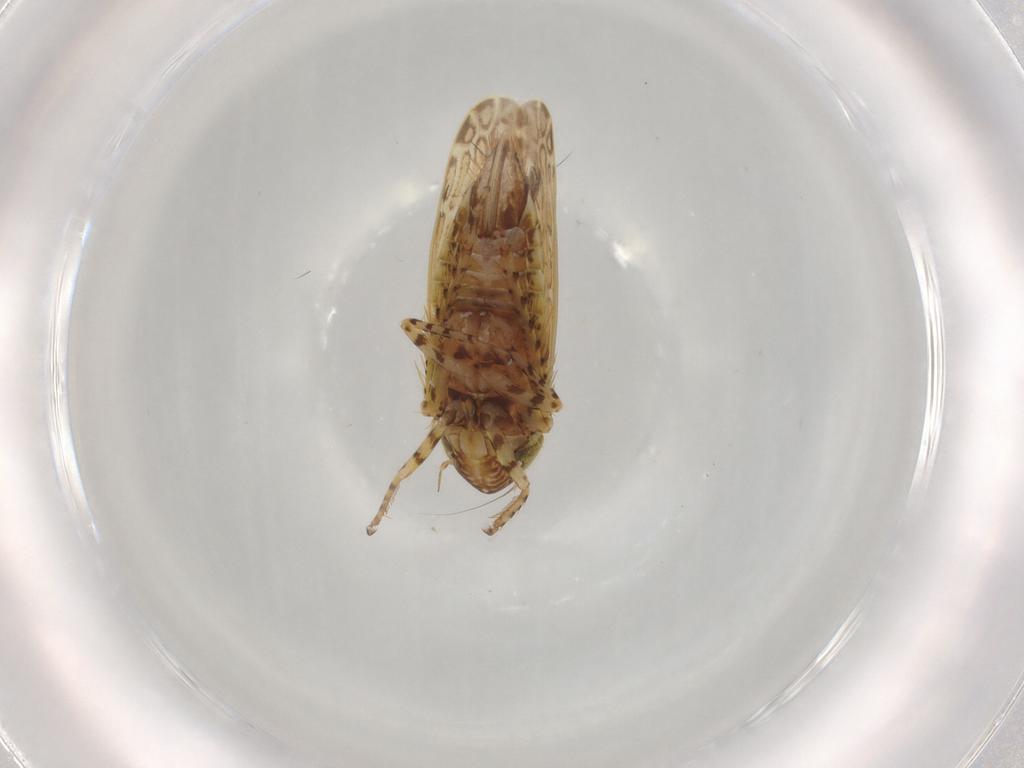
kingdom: Animalia
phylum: Arthropoda
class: Insecta
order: Hemiptera
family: Cicadellidae
